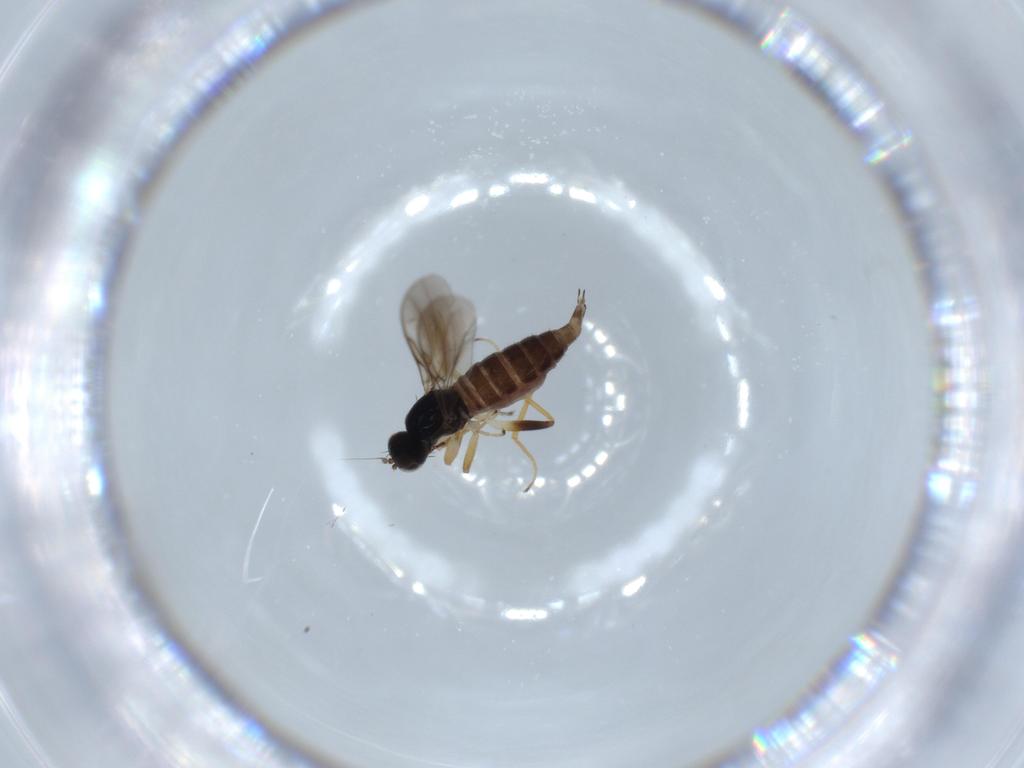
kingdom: Animalia
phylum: Arthropoda
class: Insecta
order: Diptera
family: Hybotidae
